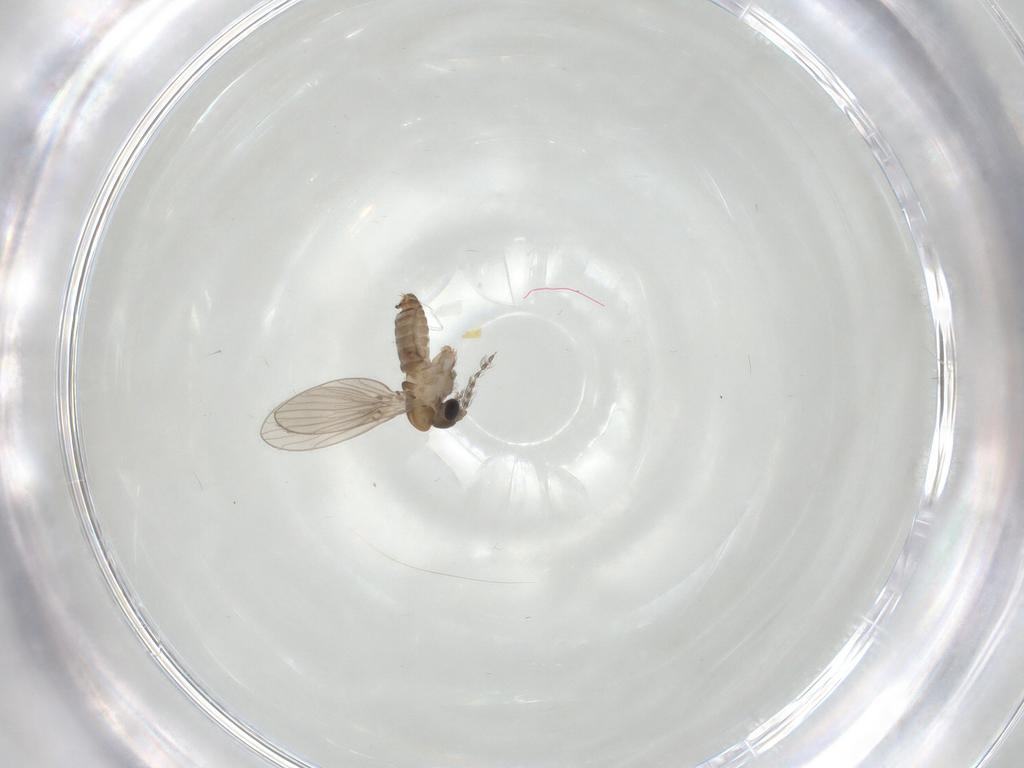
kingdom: Animalia
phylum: Arthropoda
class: Insecta
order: Diptera
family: Psychodidae
